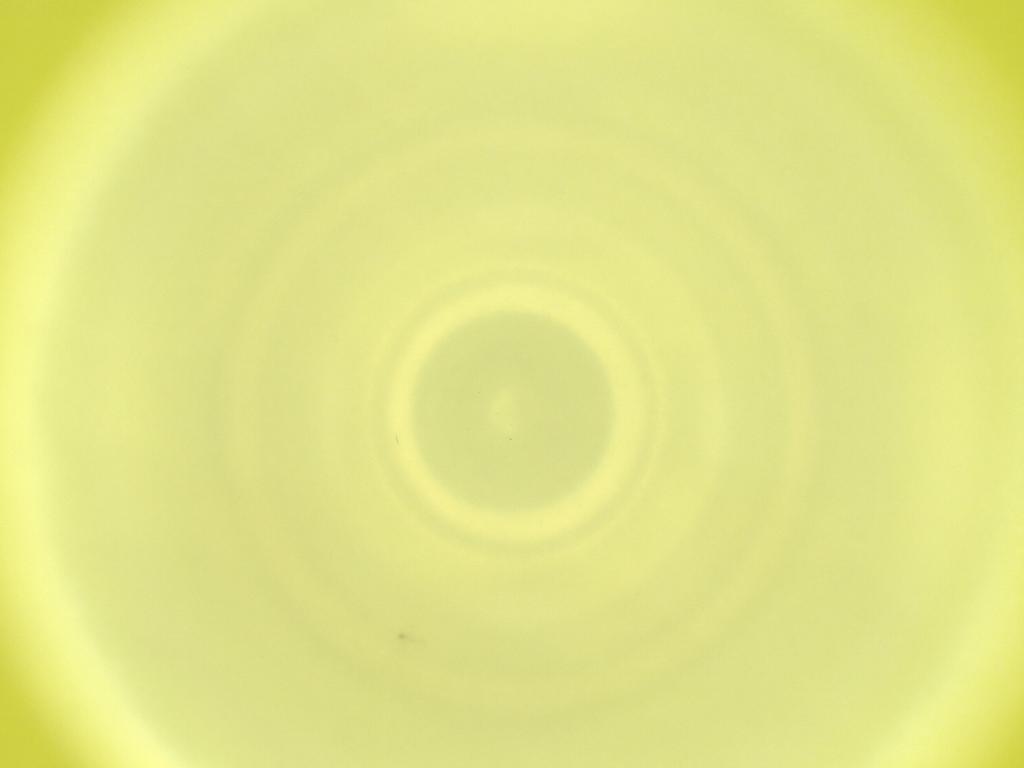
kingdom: Animalia
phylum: Arthropoda
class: Insecta
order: Diptera
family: Cecidomyiidae
